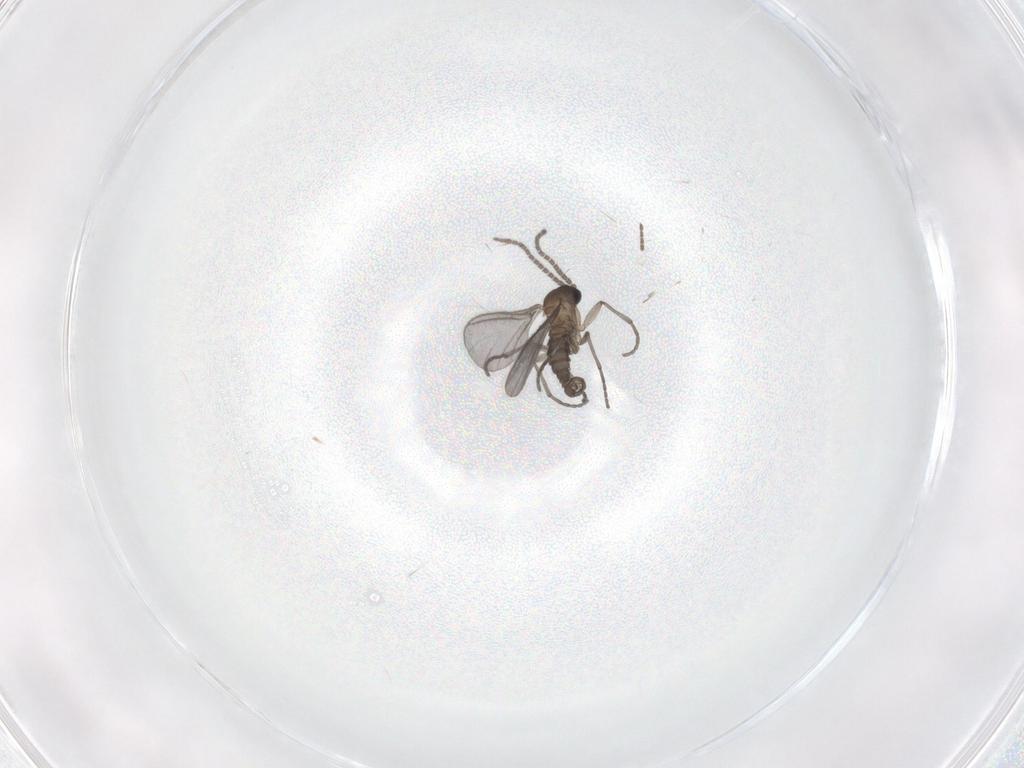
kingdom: Animalia
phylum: Arthropoda
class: Insecta
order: Diptera
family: Sciaridae
